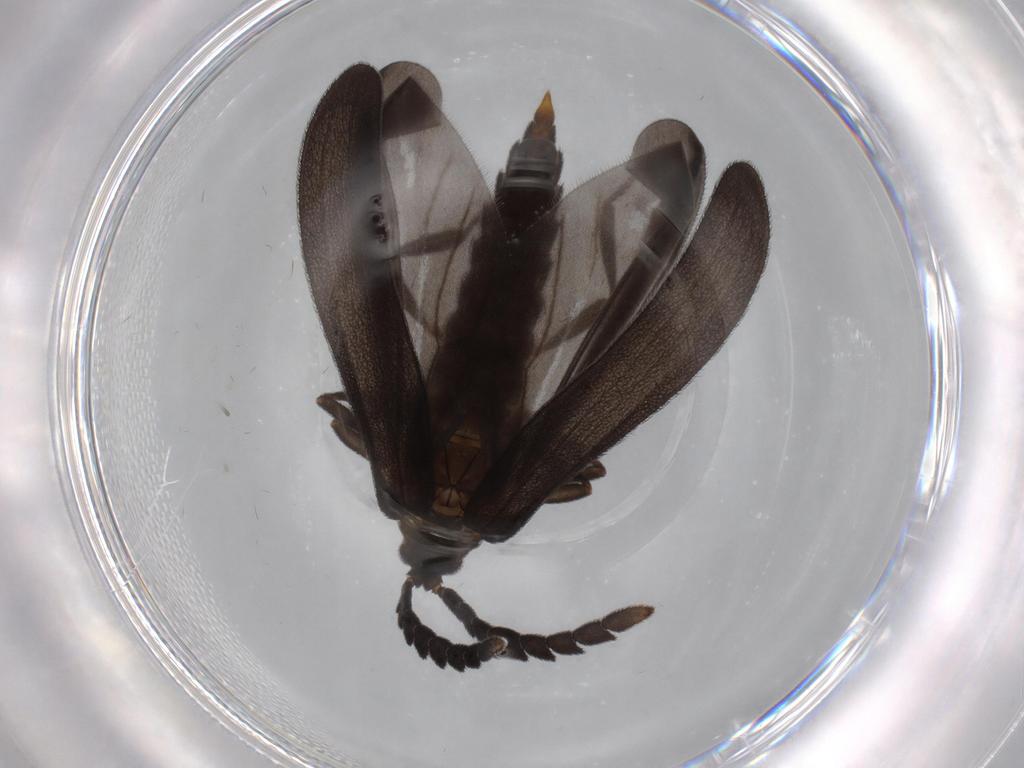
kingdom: Animalia
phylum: Arthropoda
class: Insecta
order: Coleoptera
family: Lycidae
